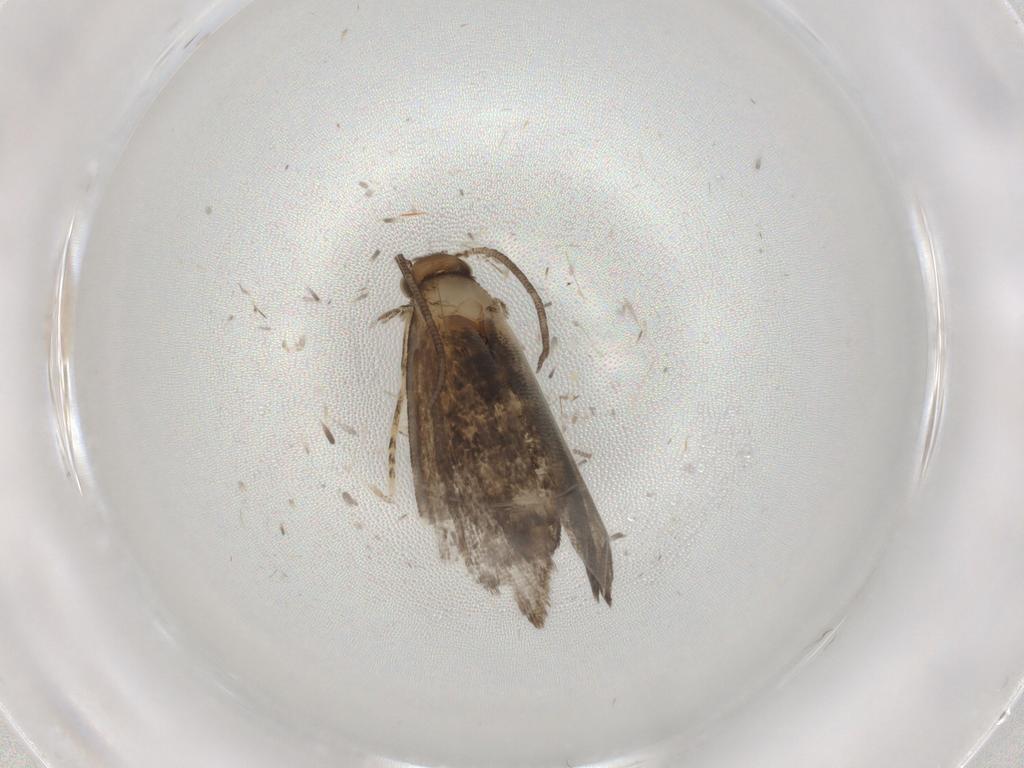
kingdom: Animalia
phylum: Arthropoda
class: Insecta
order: Lepidoptera
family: Dryadaulidae
